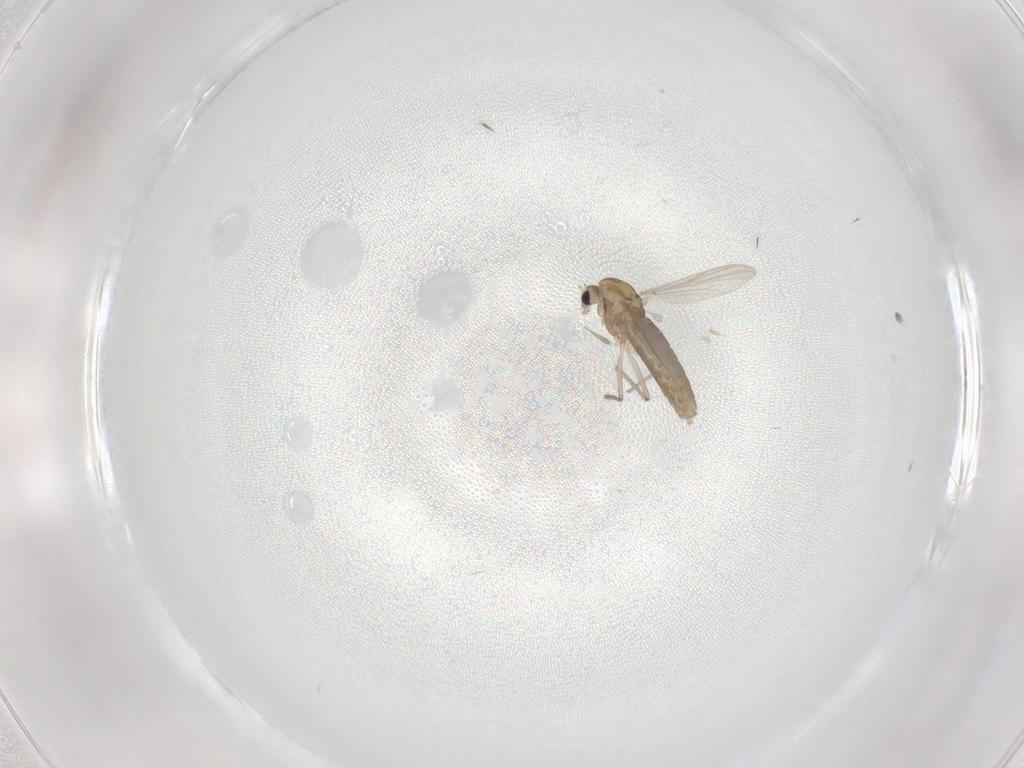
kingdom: Animalia
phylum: Arthropoda
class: Insecta
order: Diptera
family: Chironomidae
